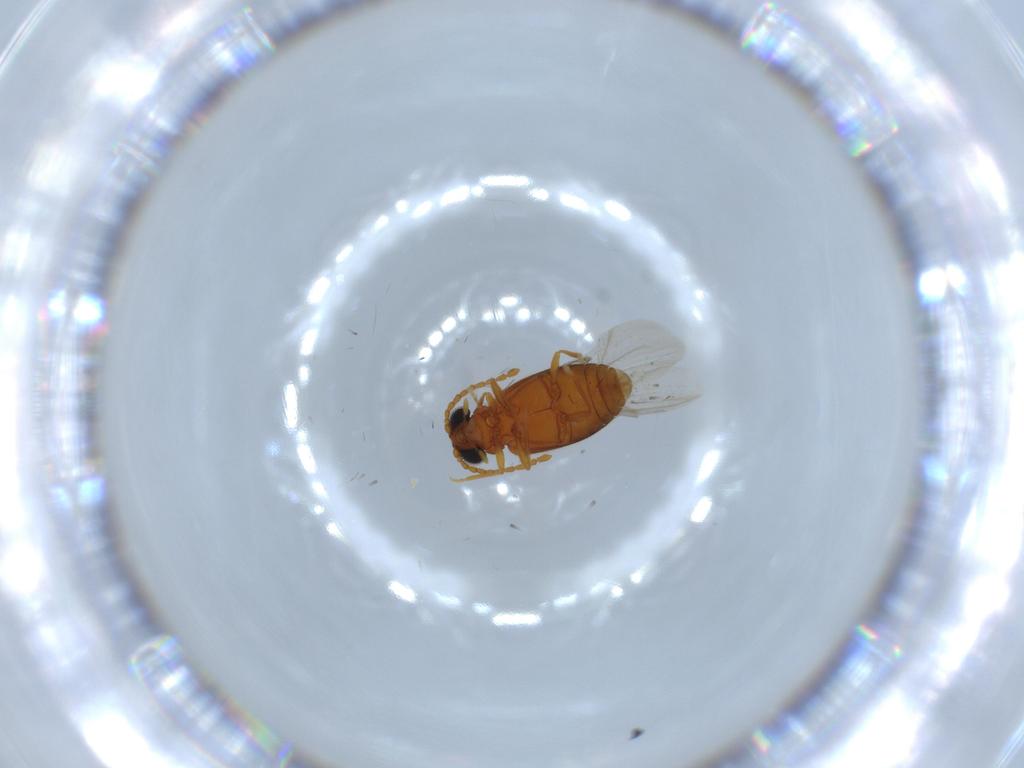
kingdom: Animalia
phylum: Arthropoda
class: Insecta
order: Coleoptera
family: Aderidae
